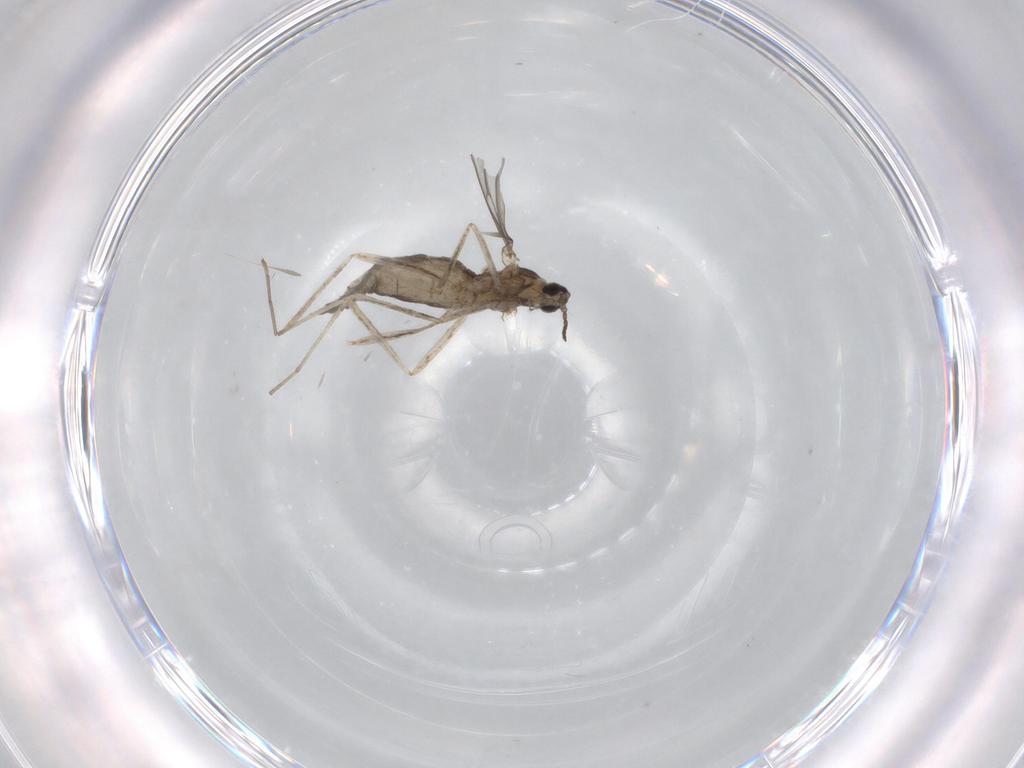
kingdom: Animalia
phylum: Arthropoda
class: Insecta
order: Diptera
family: Cecidomyiidae
